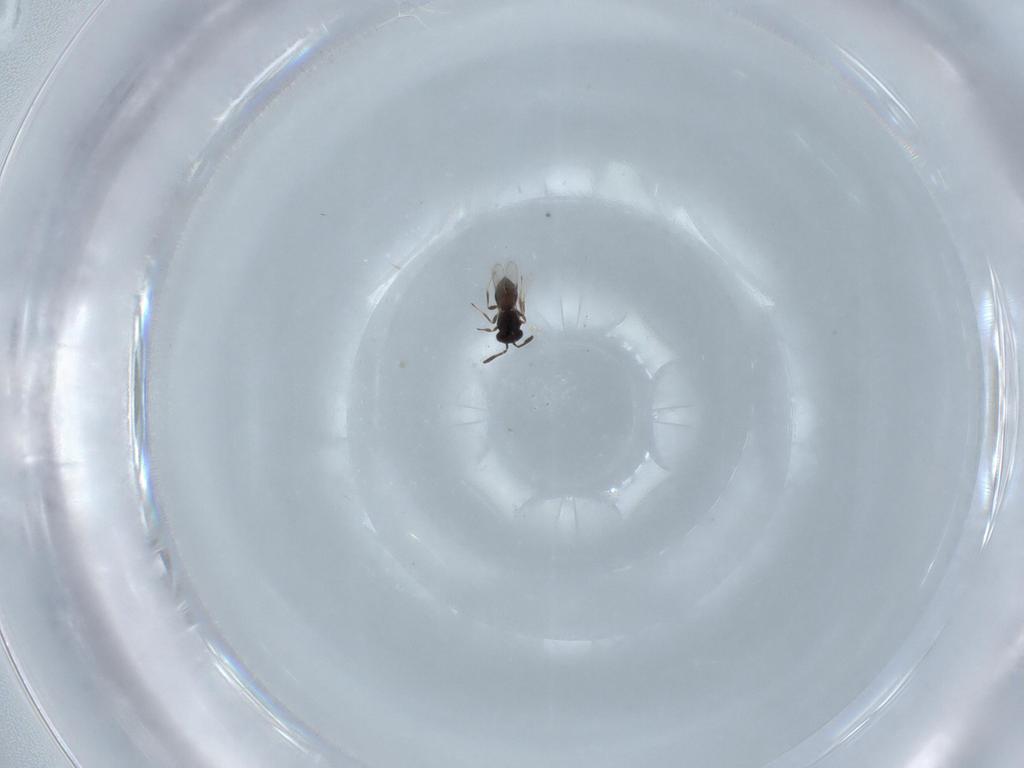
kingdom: Animalia
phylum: Arthropoda
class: Insecta
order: Hymenoptera
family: Scelionidae
